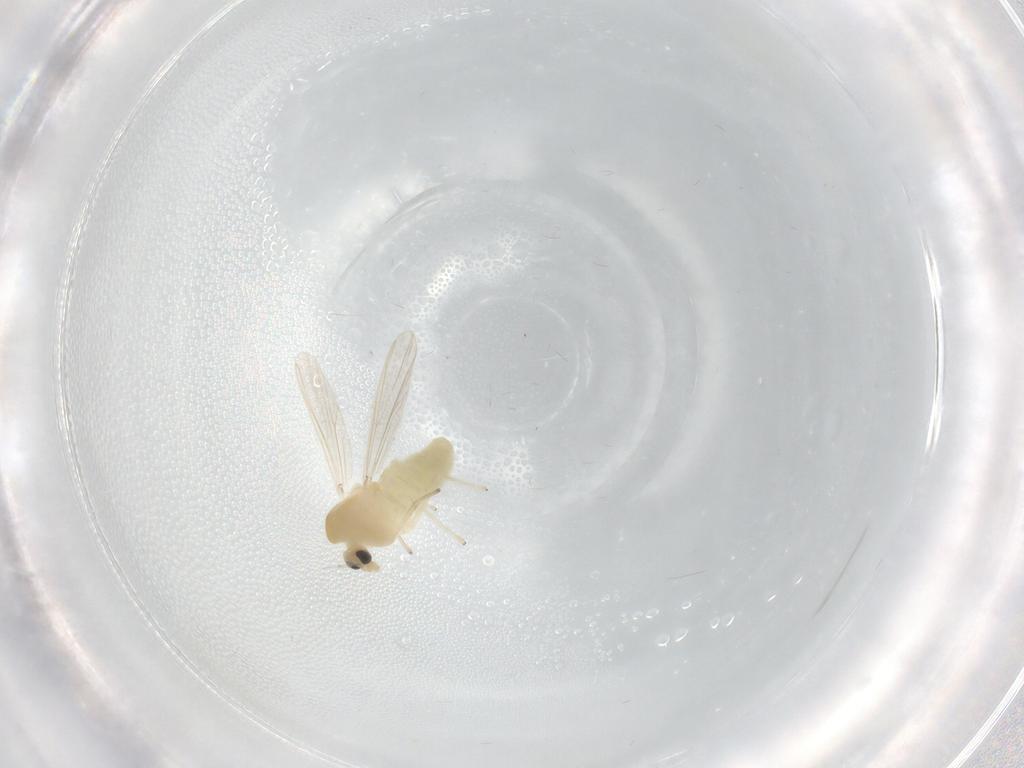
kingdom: Animalia
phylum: Arthropoda
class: Insecta
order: Diptera
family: Chironomidae
